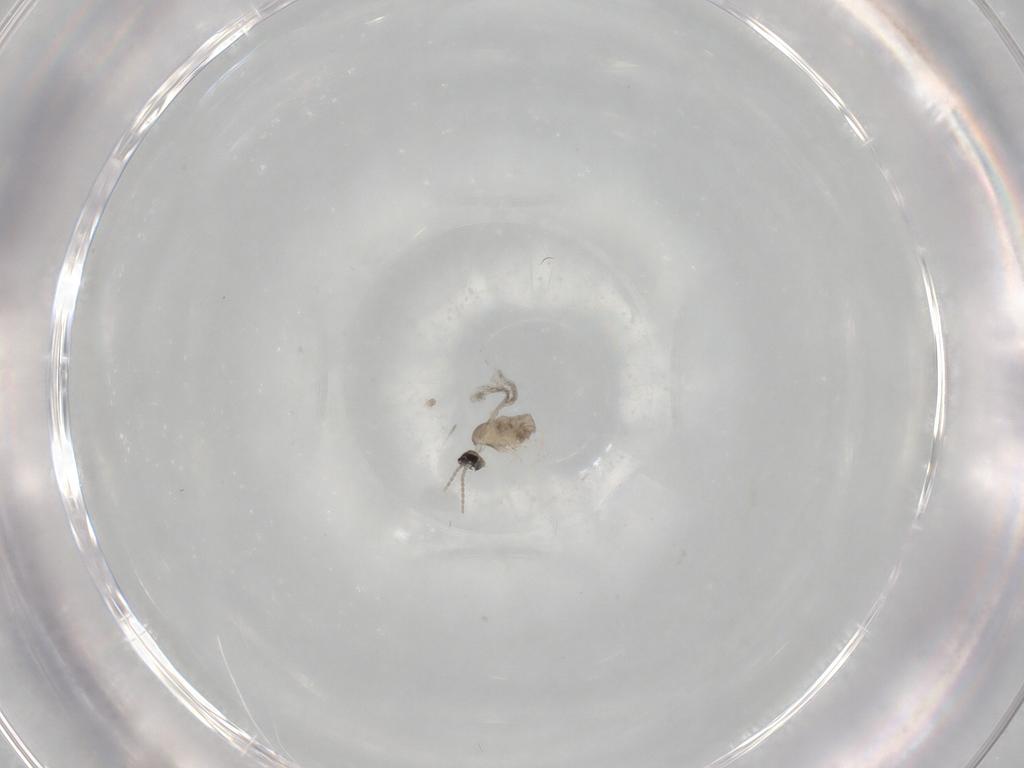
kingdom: Animalia
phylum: Arthropoda
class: Insecta
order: Diptera
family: Cecidomyiidae
